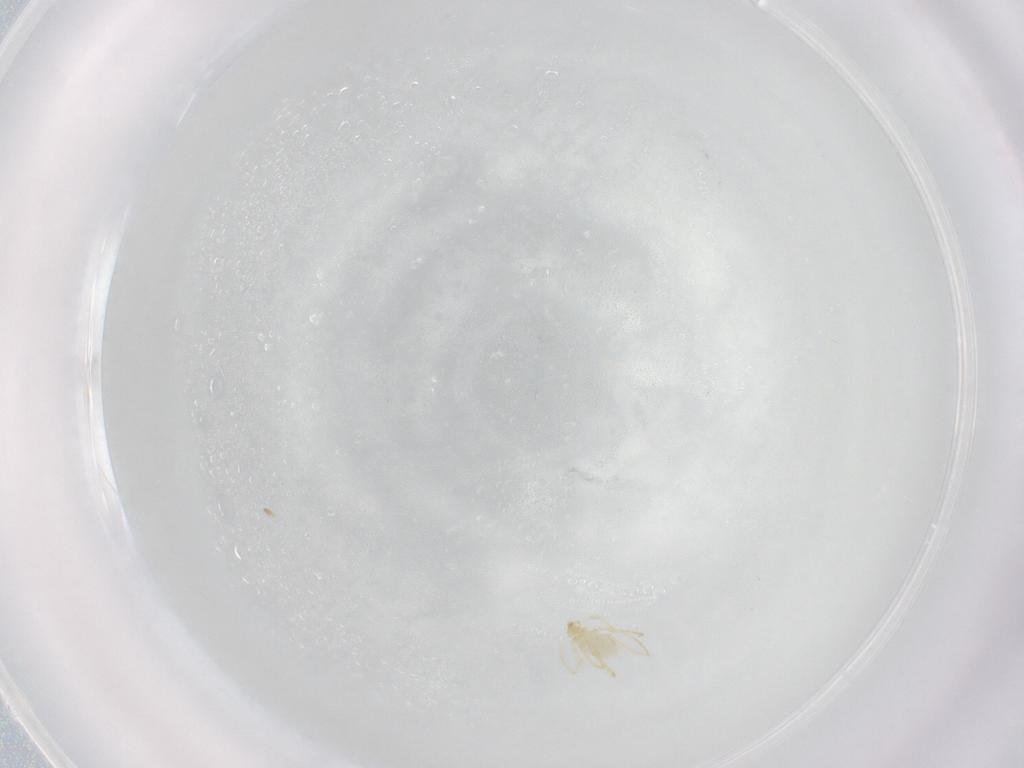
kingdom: Animalia
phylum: Arthropoda
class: Arachnida
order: Trombidiformes
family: Erythraeidae
